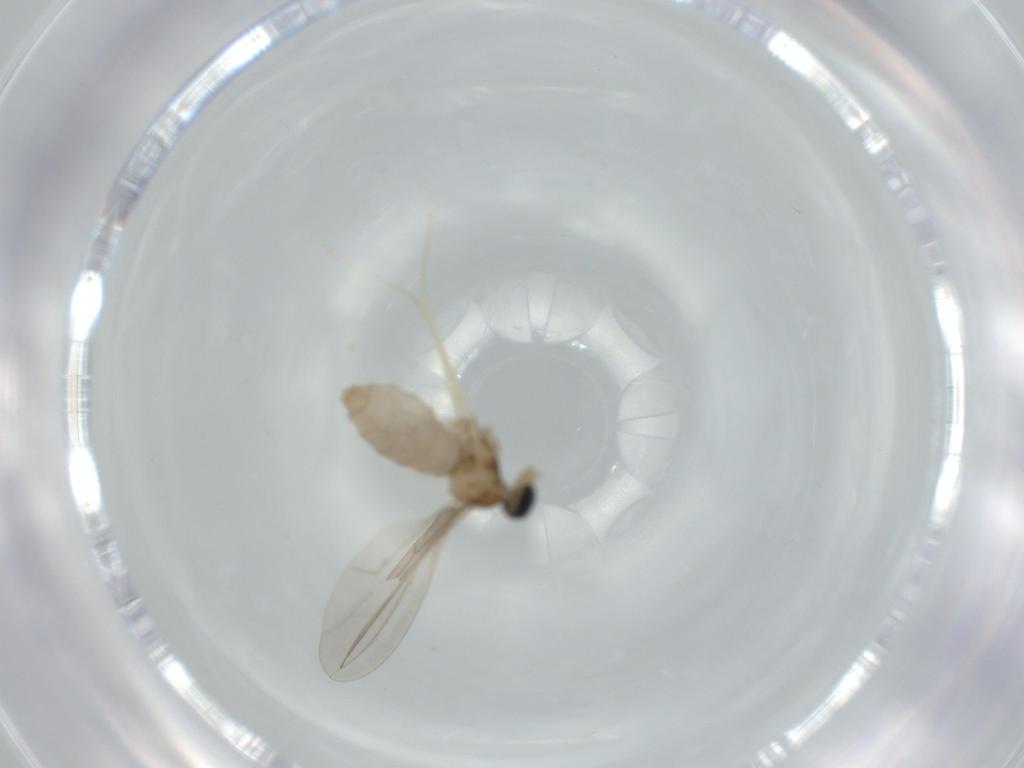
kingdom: Animalia
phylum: Arthropoda
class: Insecta
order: Diptera
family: Cecidomyiidae
